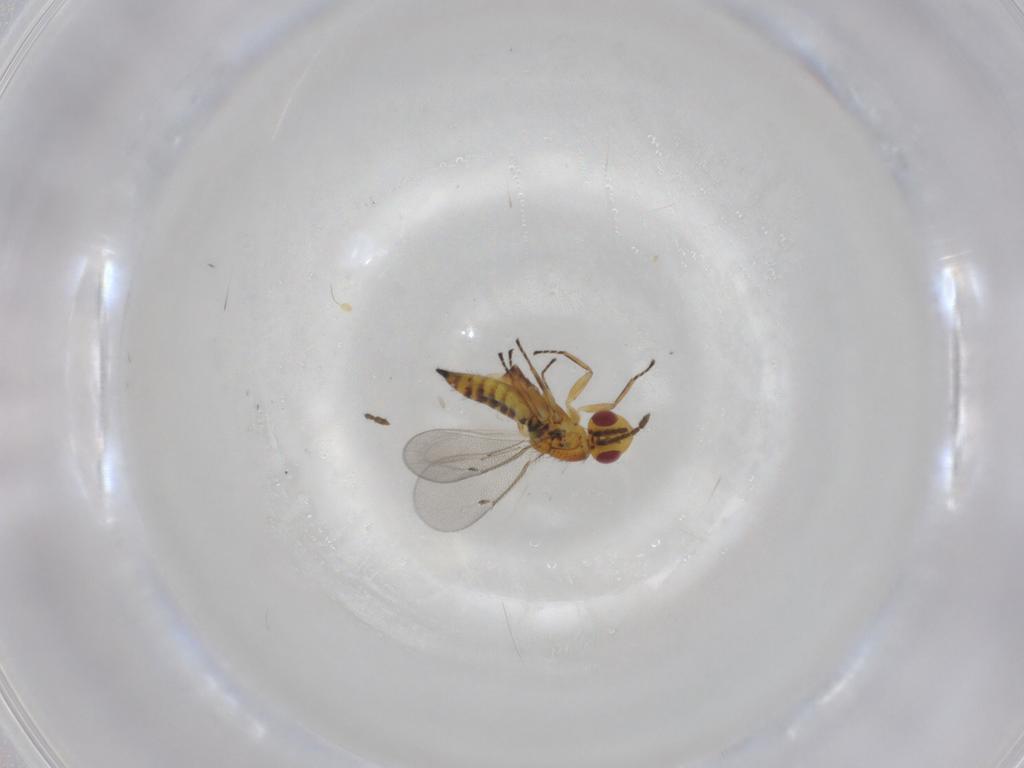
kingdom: Animalia
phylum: Arthropoda
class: Insecta
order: Hymenoptera
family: Eulophidae
